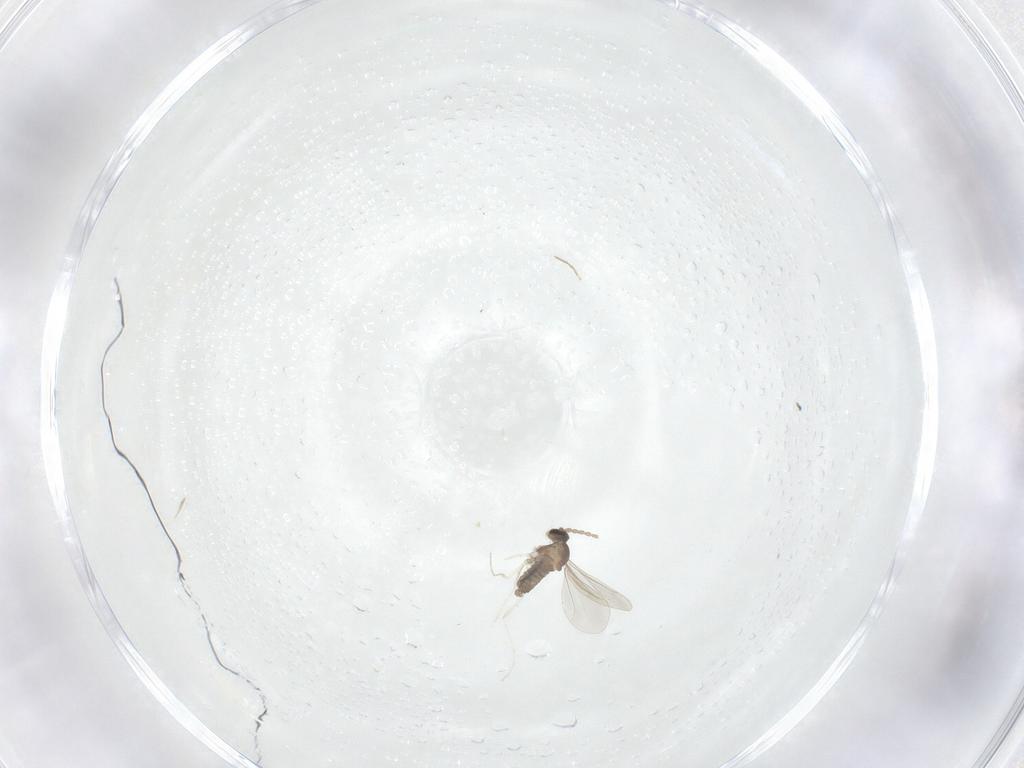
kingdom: Animalia
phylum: Arthropoda
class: Insecta
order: Diptera
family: Cecidomyiidae
